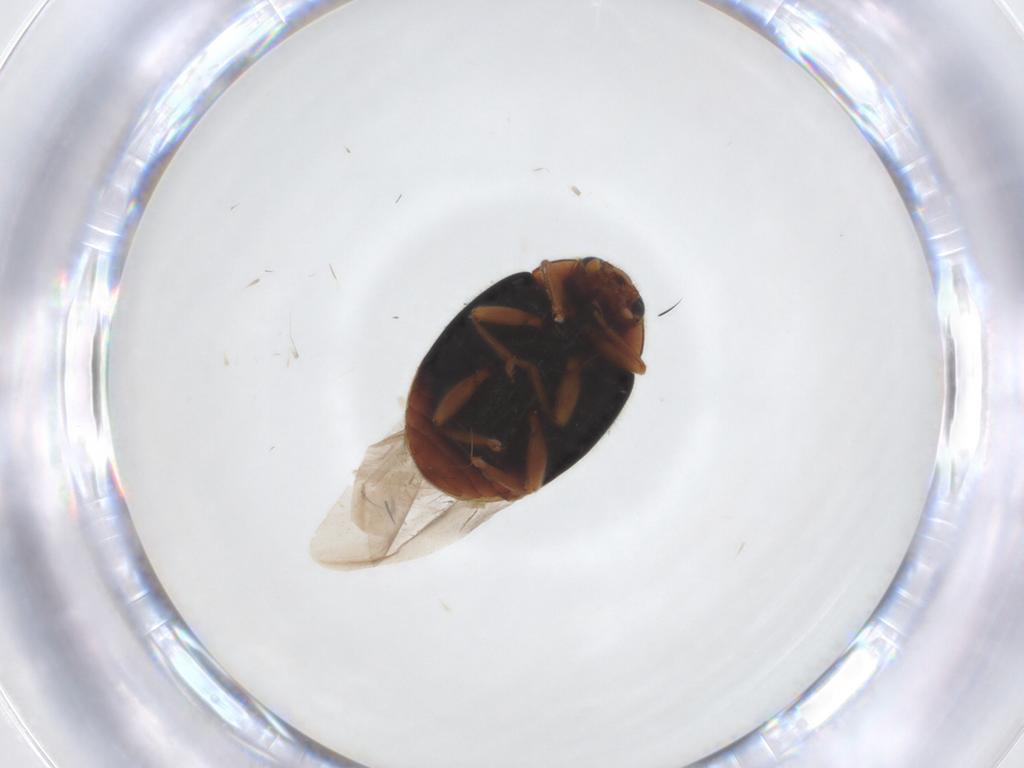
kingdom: Animalia
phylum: Arthropoda
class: Insecta
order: Coleoptera
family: Coccinellidae
